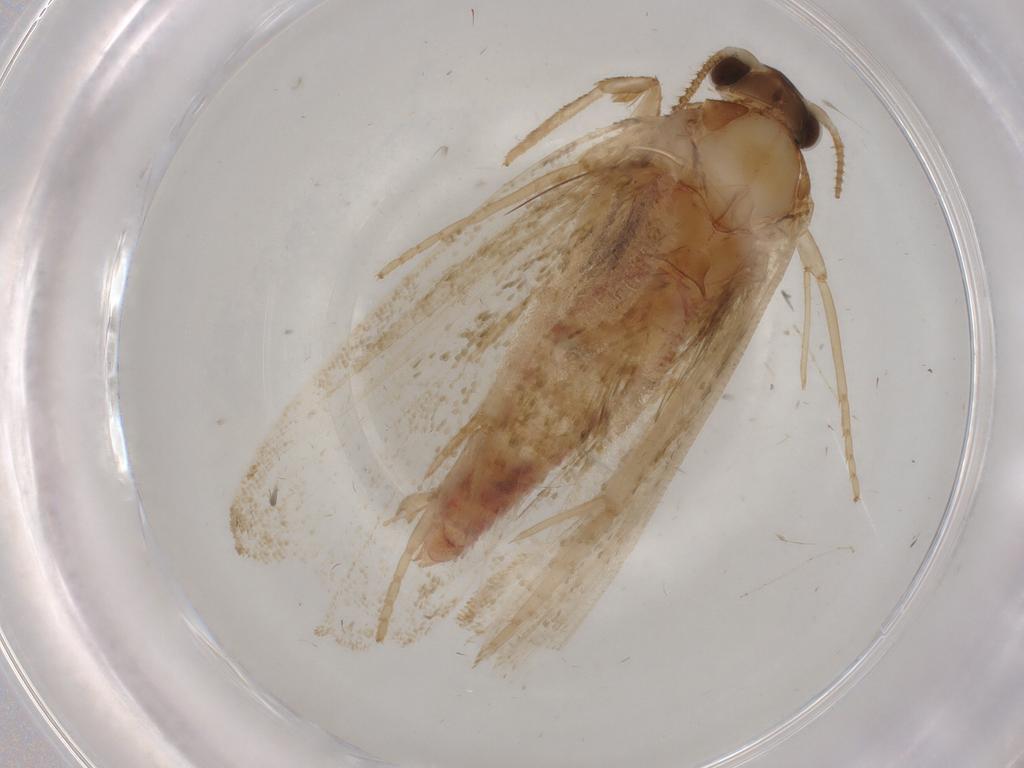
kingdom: Animalia
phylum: Arthropoda
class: Insecta
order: Lepidoptera
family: Geometridae
